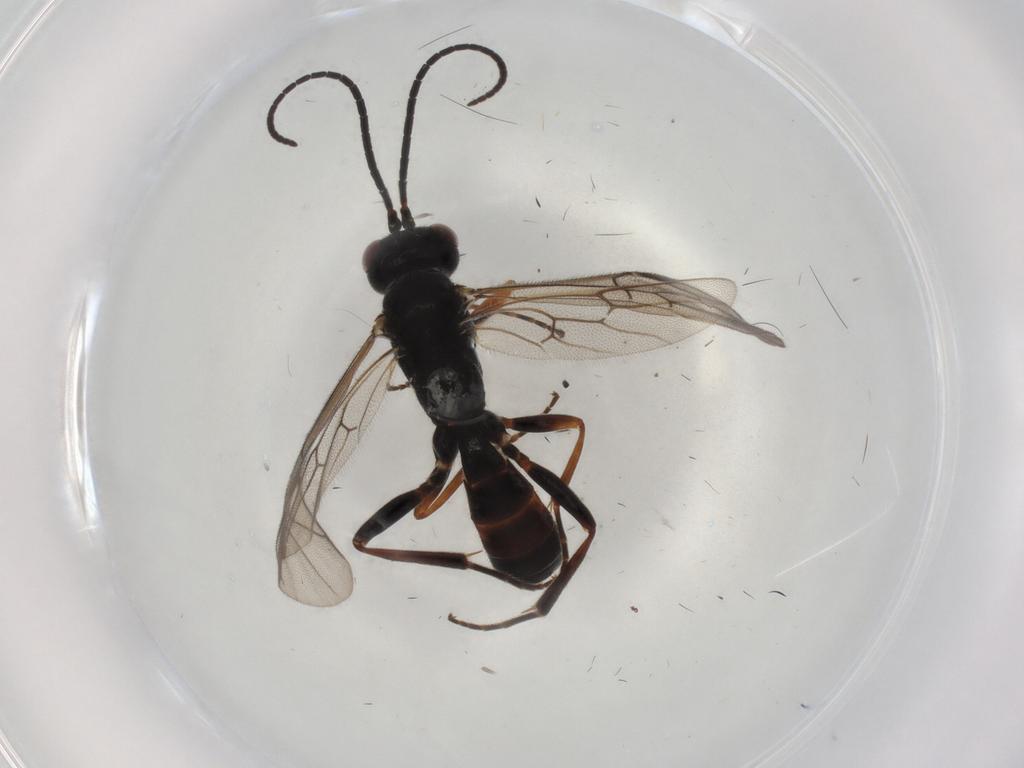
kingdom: Animalia
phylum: Arthropoda
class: Insecta
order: Hymenoptera
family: Ichneumonidae
